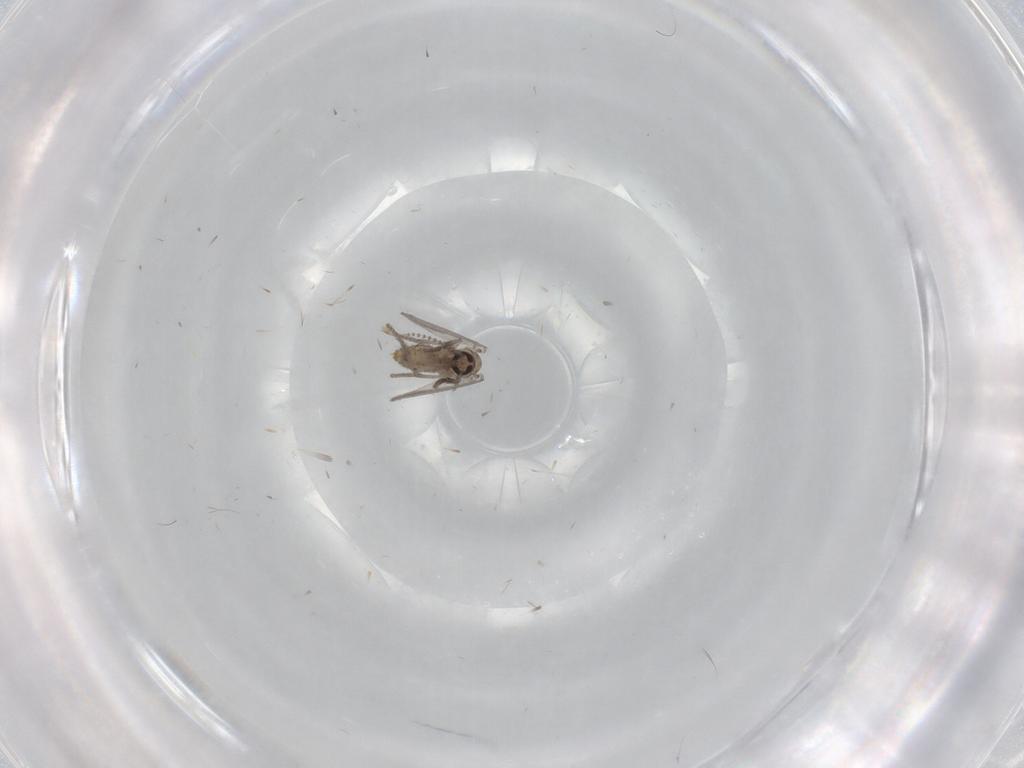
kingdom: Animalia
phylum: Arthropoda
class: Insecta
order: Diptera
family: Psychodidae
